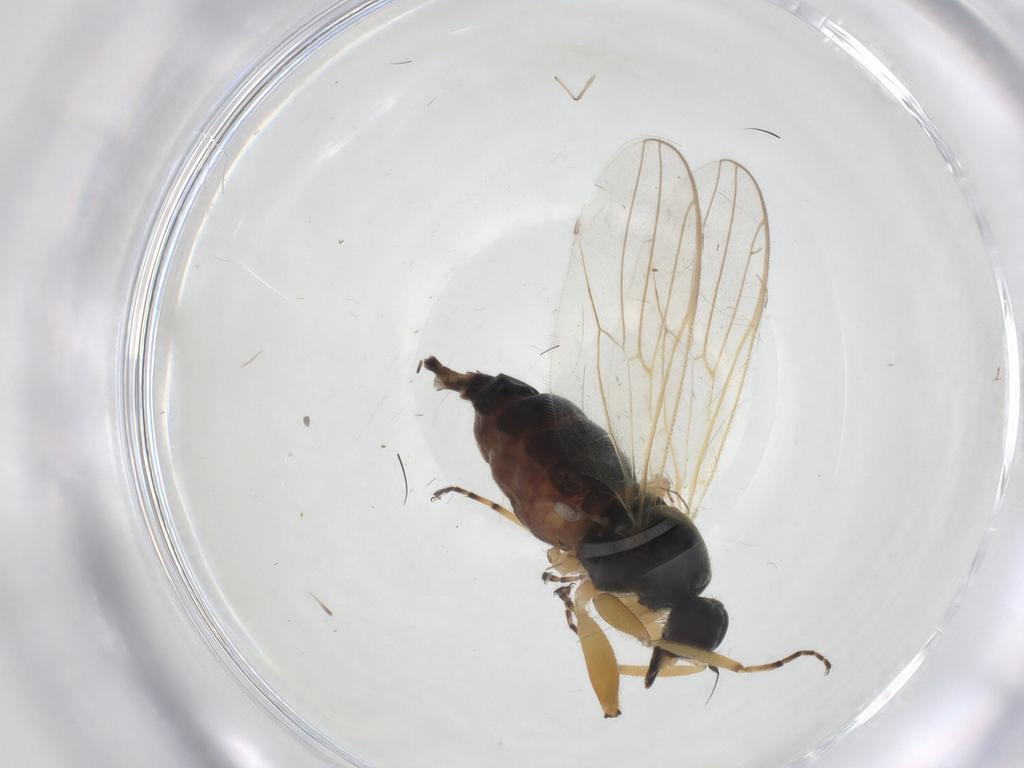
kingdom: Animalia
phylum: Arthropoda
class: Insecta
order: Diptera
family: Hybotidae
